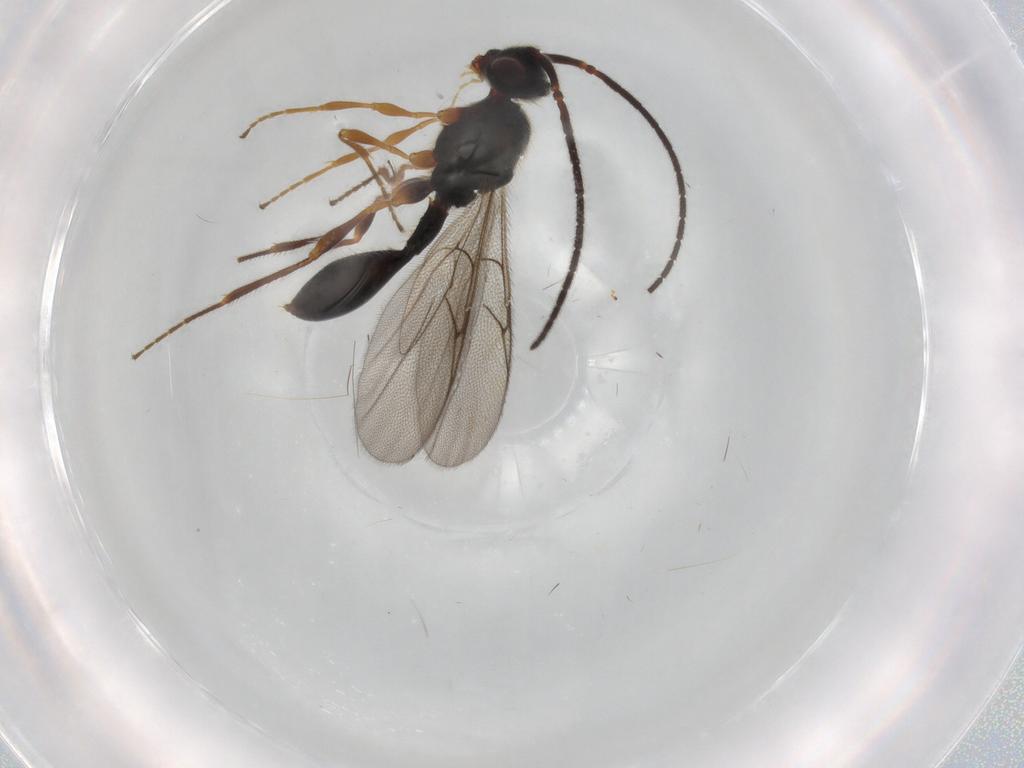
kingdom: Animalia
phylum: Arthropoda
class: Insecta
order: Hymenoptera
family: Diapriidae
